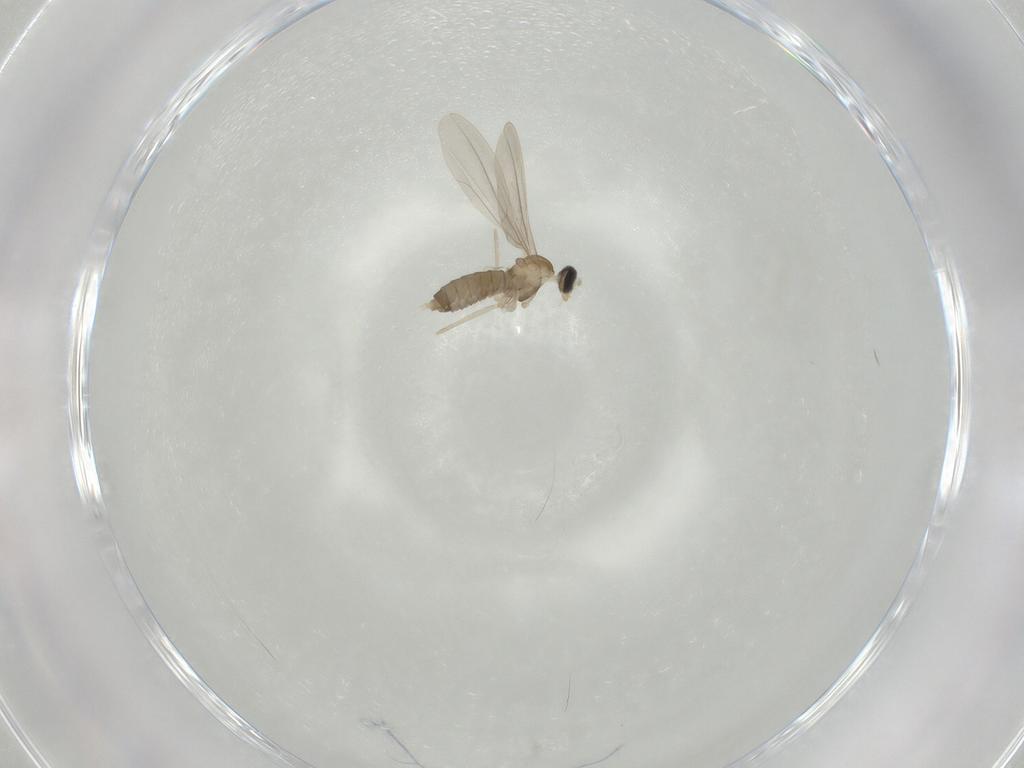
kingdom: Animalia
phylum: Arthropoda
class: Insecta
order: Diptera
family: Cecidomyiidae
